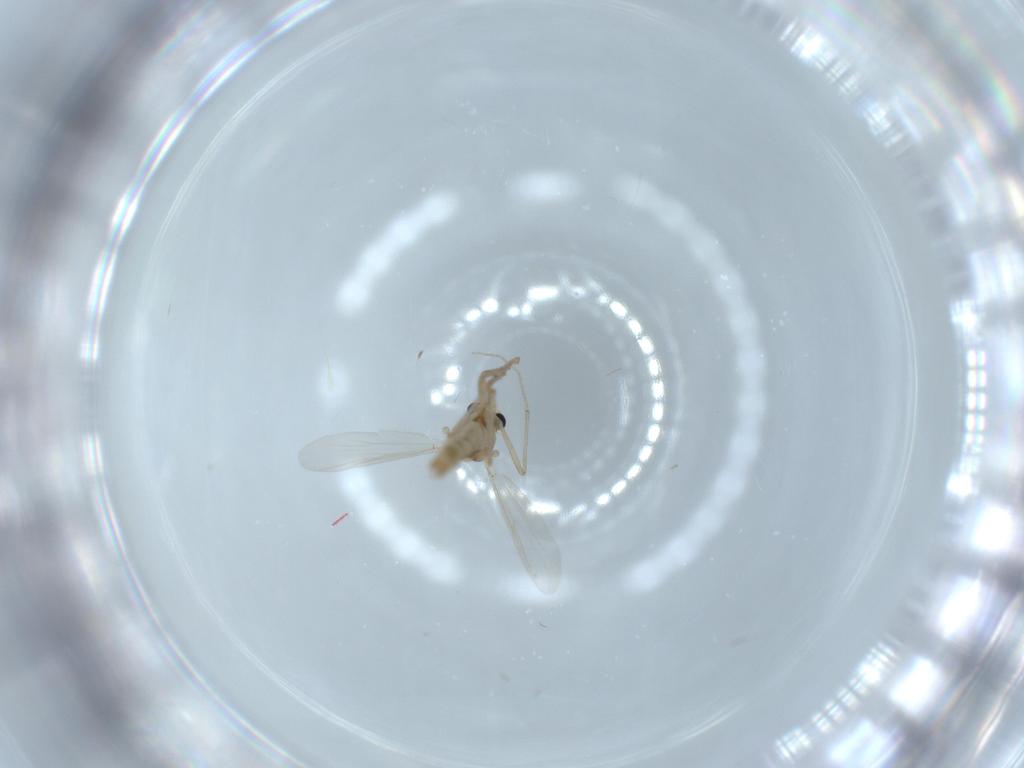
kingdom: Animalia
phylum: Arthropoda
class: Insecta
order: Diptera
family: Chironomidae
